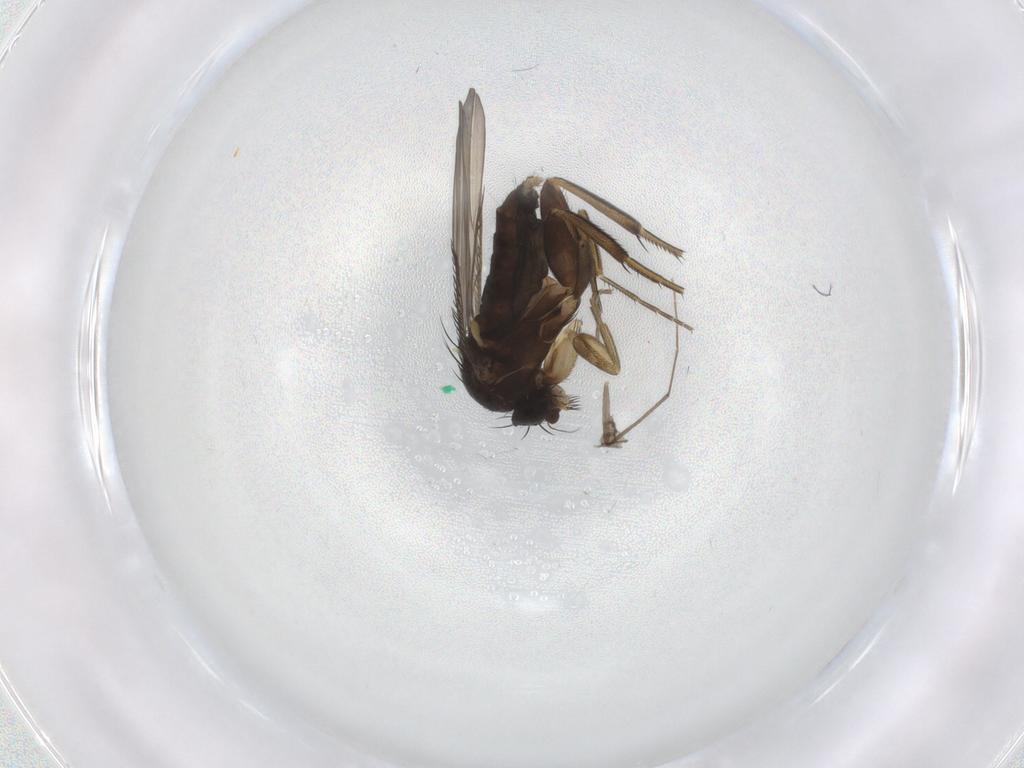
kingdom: Animalia
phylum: Arthropoda
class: Insecta
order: Diptera
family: Phoridae
